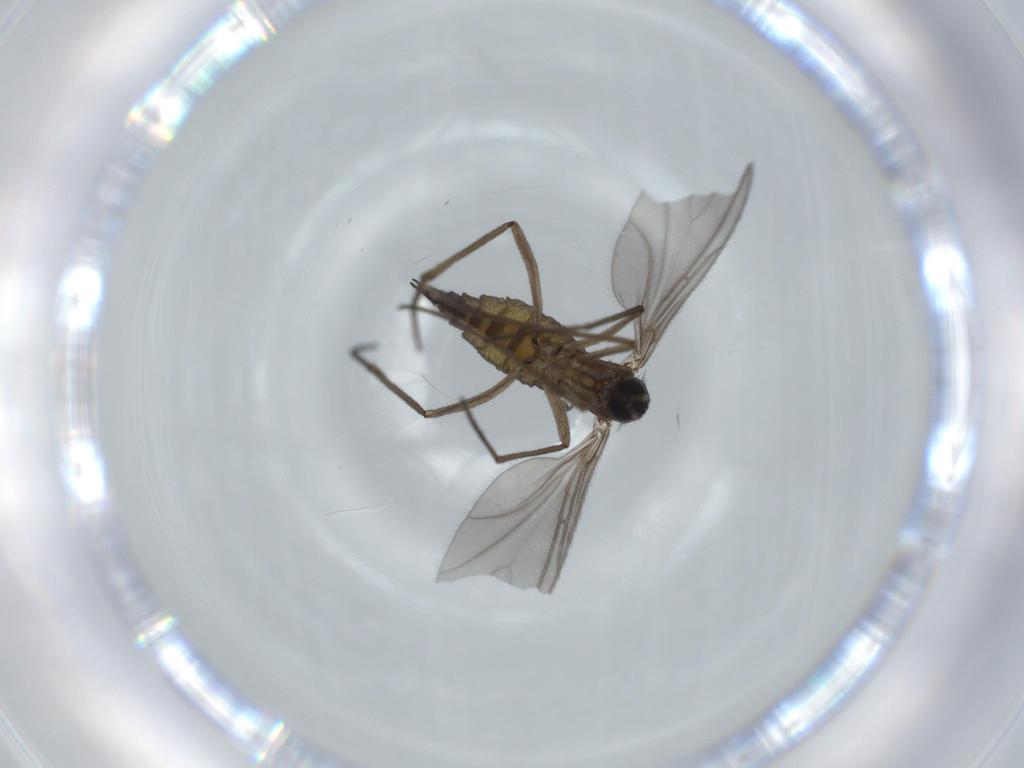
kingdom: Animalia
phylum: Arthropoda
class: Insecta
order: Diptera
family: Sciaridae
